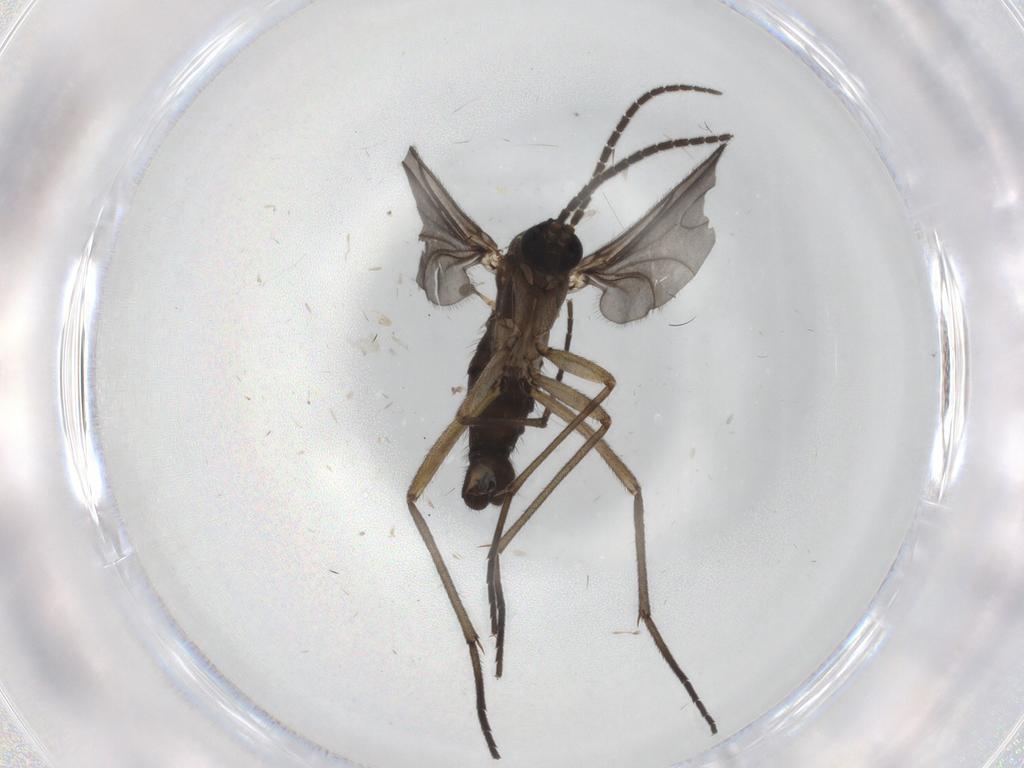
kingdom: Animalia
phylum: Arthropoda
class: Insecta
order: Diptera
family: Sciaridae
